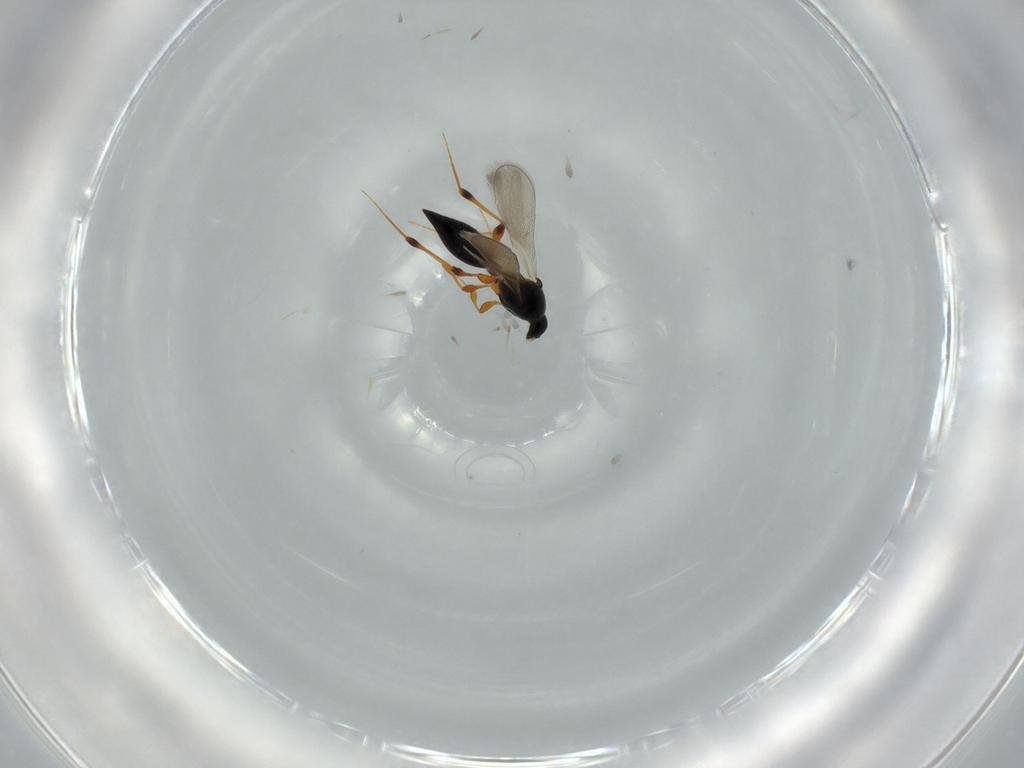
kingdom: Animalia
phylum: Arthropoda
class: Insecta
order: Hymenoptera
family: Platygastridae
